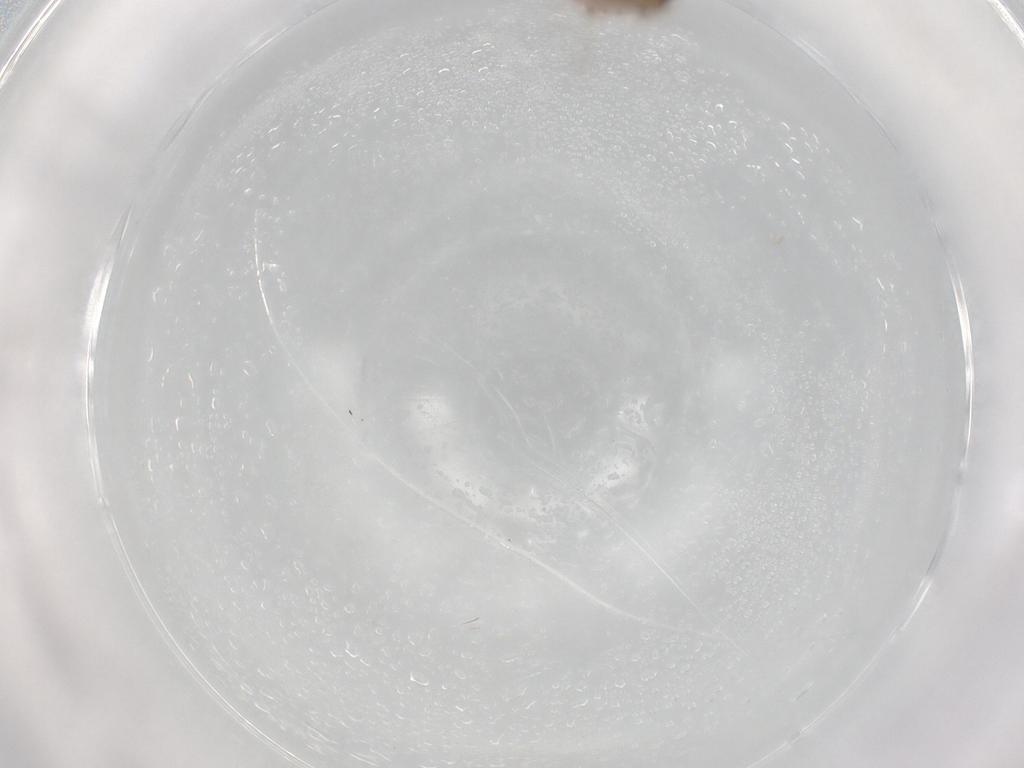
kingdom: Animalia
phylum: Arthropoda
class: Insecta
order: Diptera
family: Cecidomyiidae
